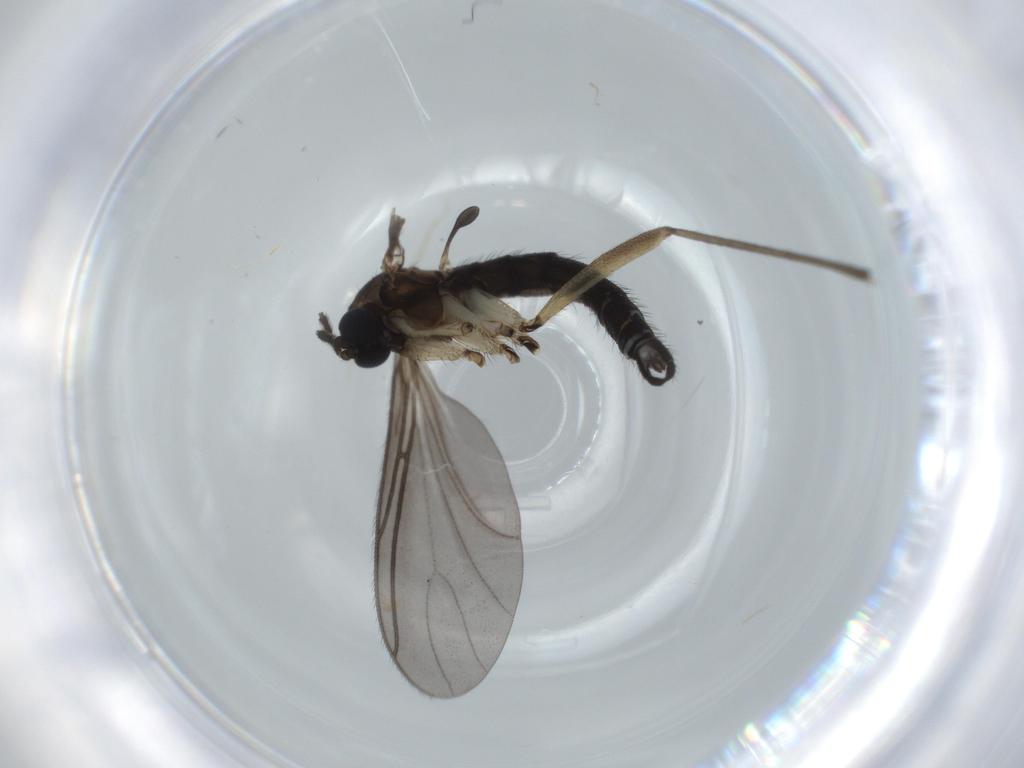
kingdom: Animalia
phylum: Arthropoda
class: Insecta
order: Diptera
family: Sciaridae
